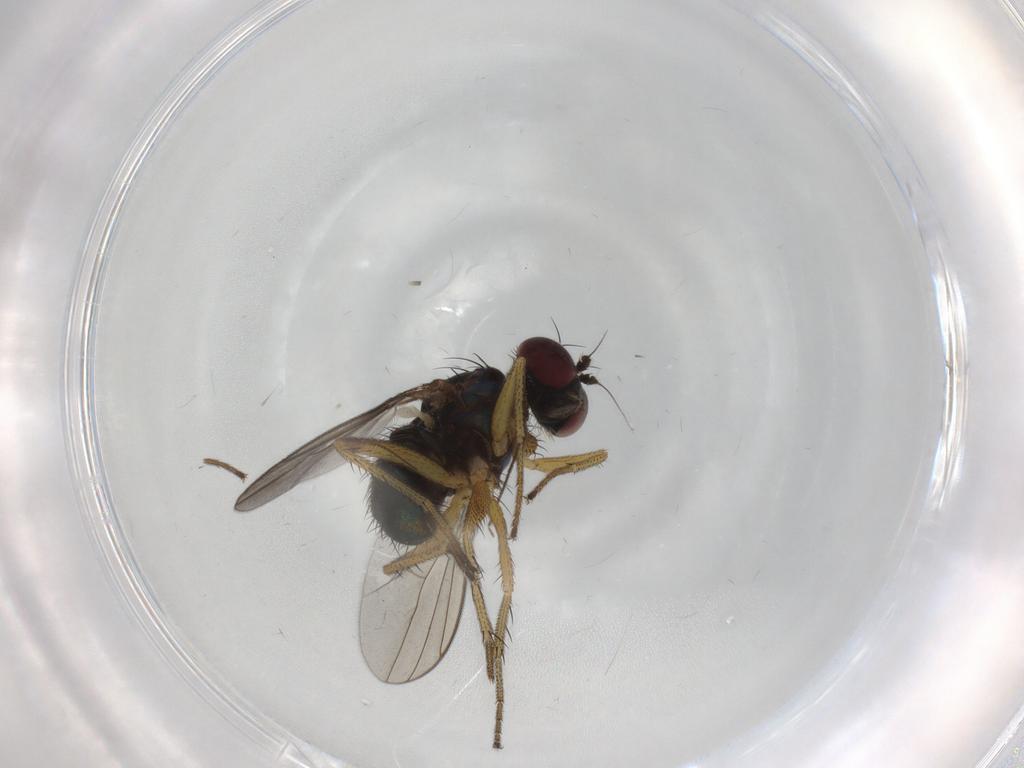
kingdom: Animalia
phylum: Arthropoda
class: Insecta
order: Diptera
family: Dolichopodidae
